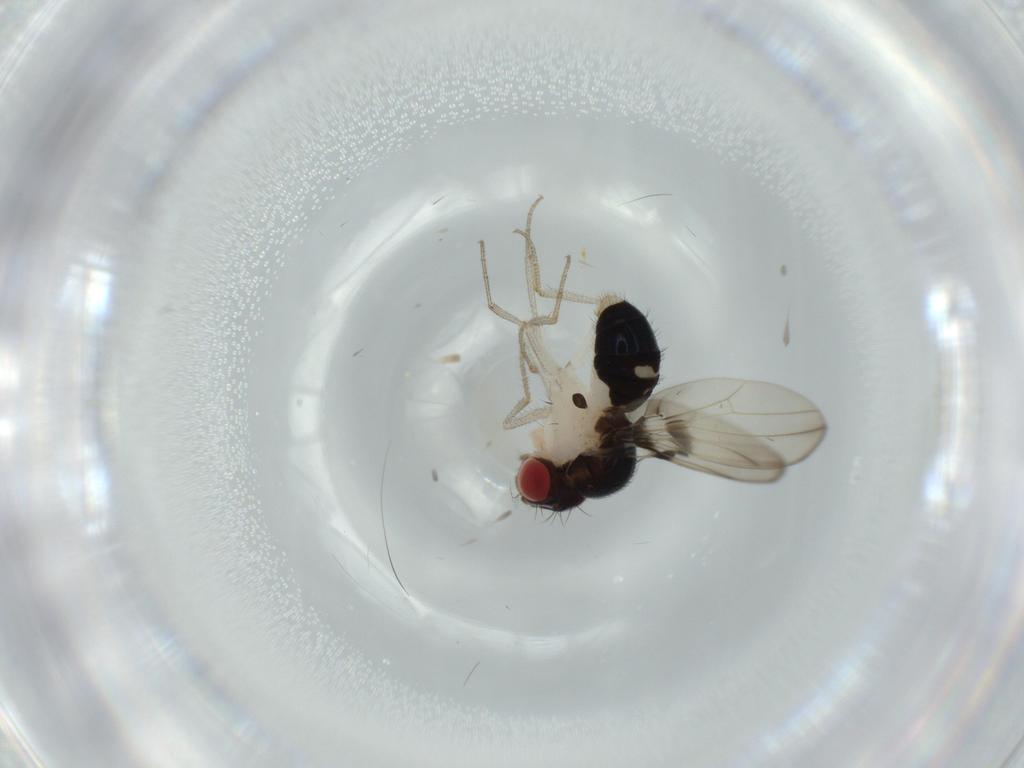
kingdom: Animalia
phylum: Arthropoda
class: Insecta
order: Diptera
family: Drosophilidae
